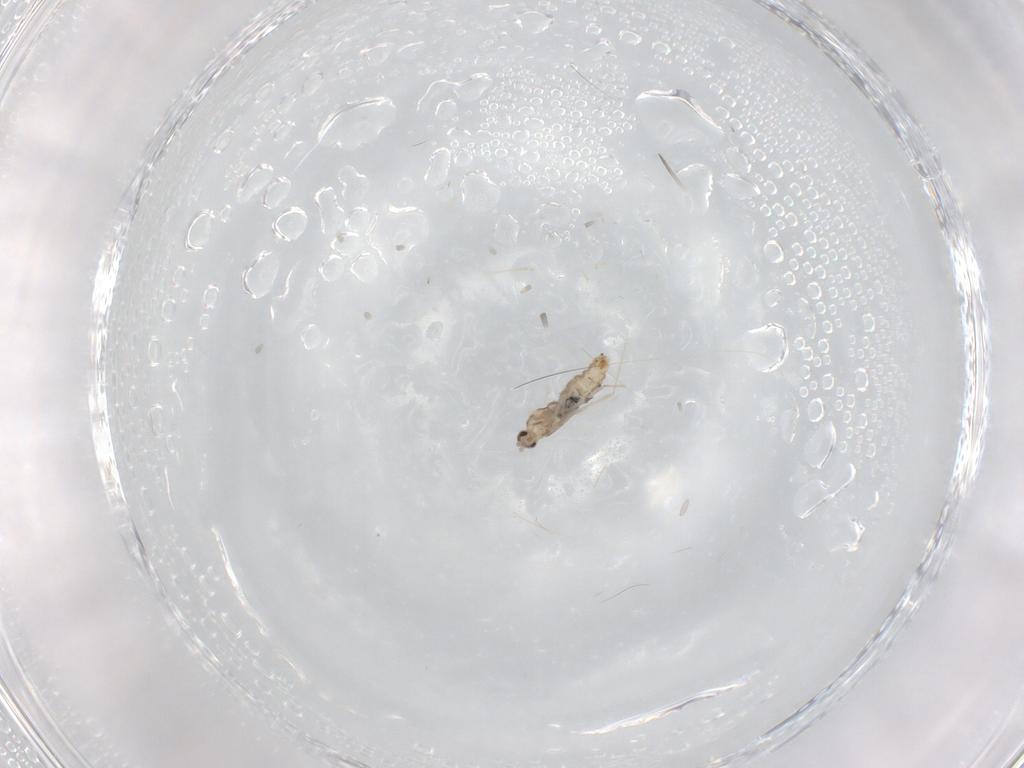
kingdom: Animalia
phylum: Arthropoda
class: Insecta
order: Diptera
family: Cecidomyiidae
